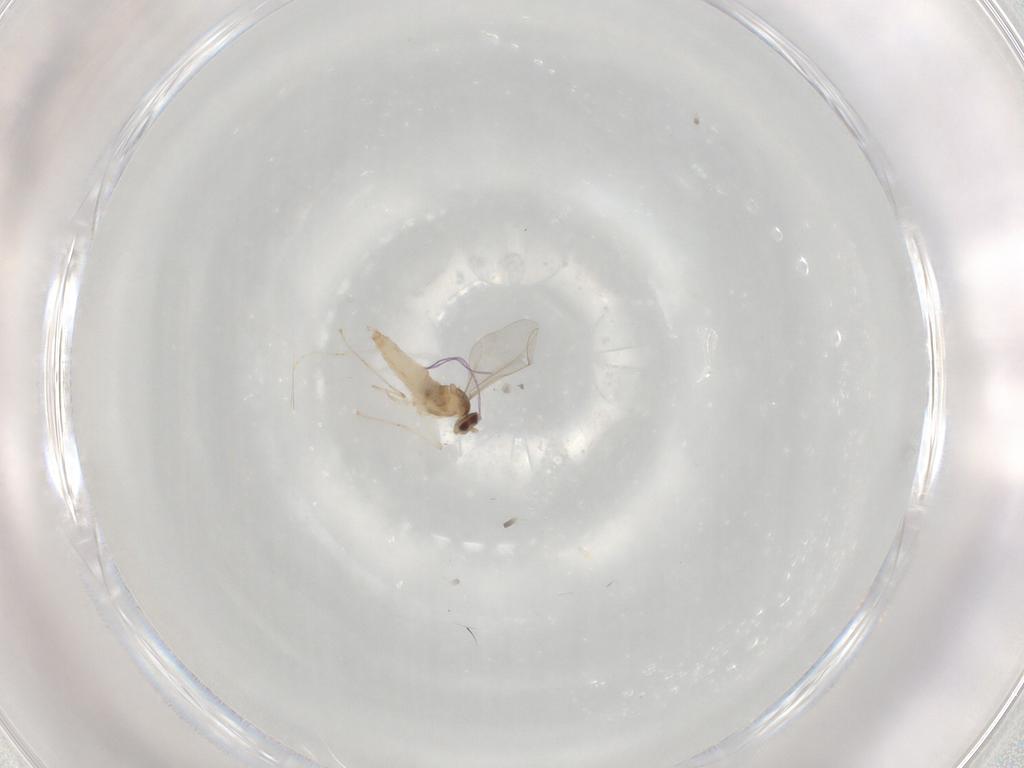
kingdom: Animalia
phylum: Arthropoda
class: Insecta
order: Diptera
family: Cecidomyiidae
